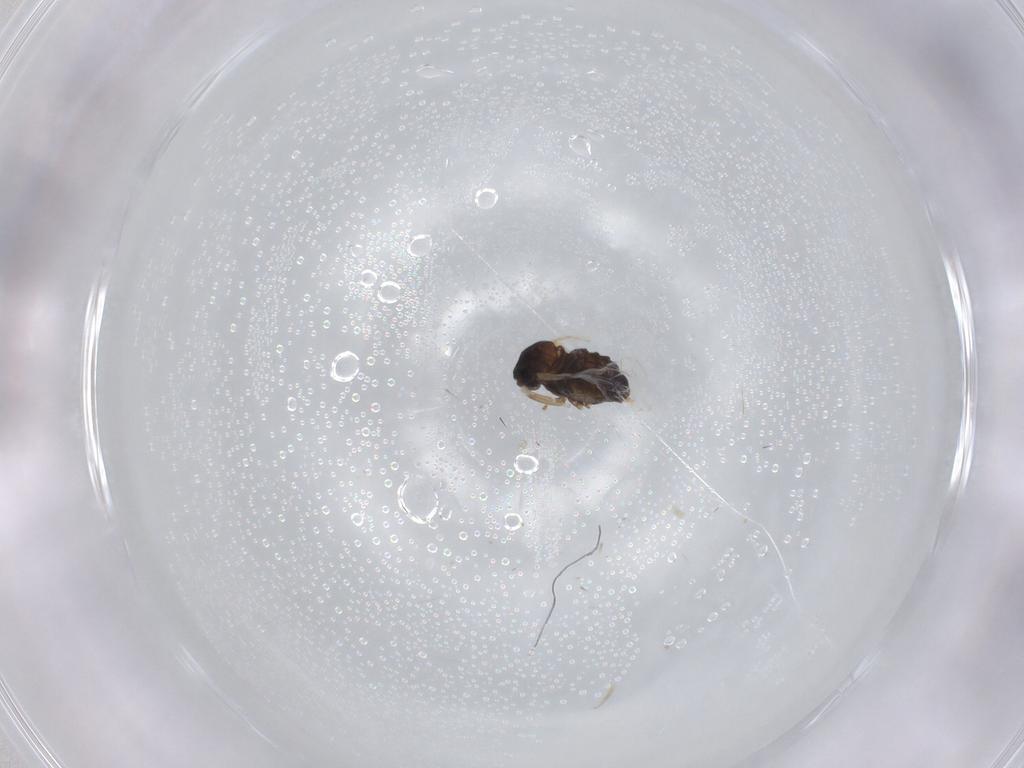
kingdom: Animalia
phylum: Arthropoda
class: Insecta
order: Diptera
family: Cecidomyiidae
